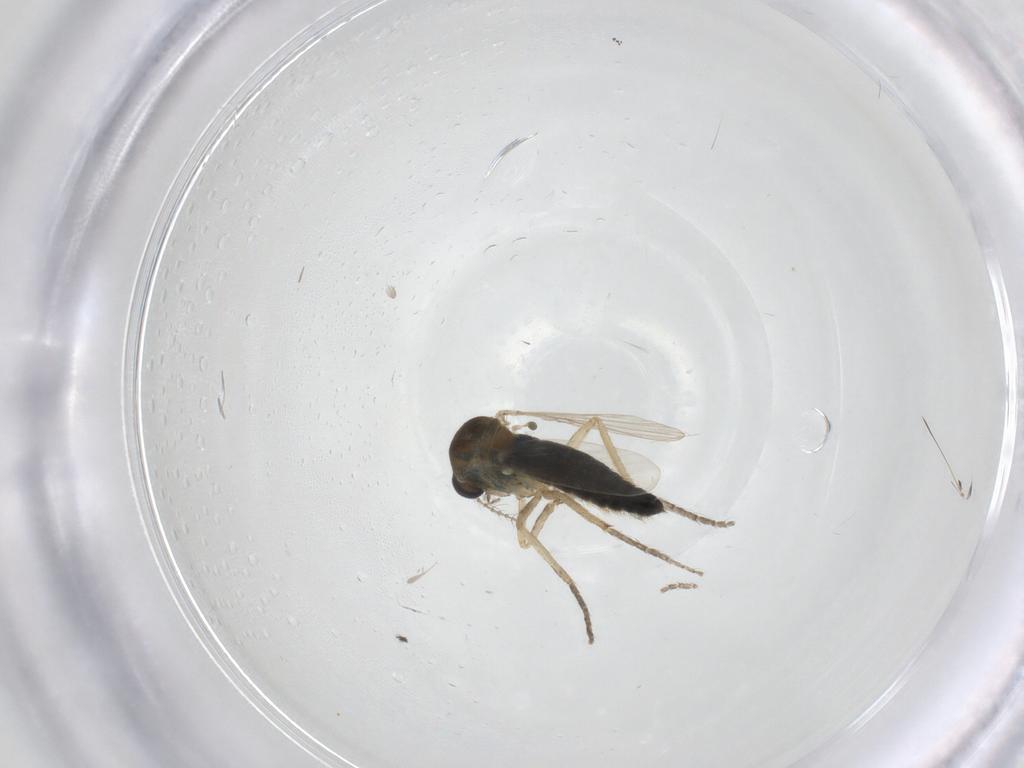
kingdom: Animalia
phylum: Arthropoda
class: Insecta
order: Diptera
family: Ceratopogonidae
